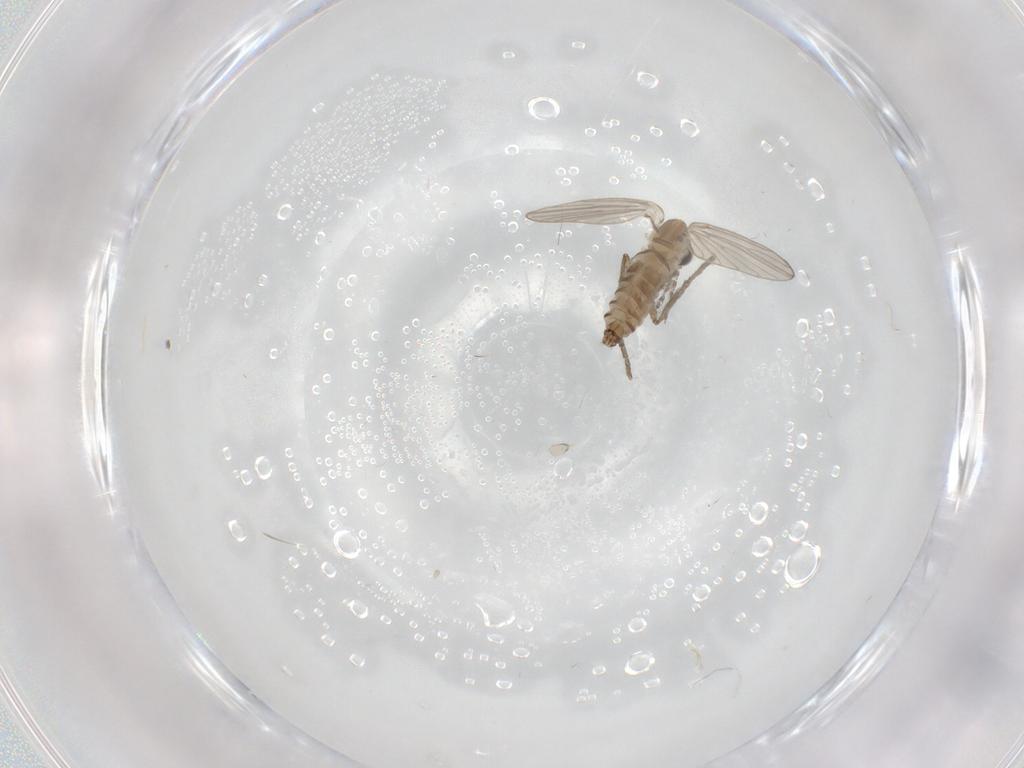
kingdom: Animalia
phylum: Arthropoda
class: Insecta
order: Diptera
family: Psychodidae
